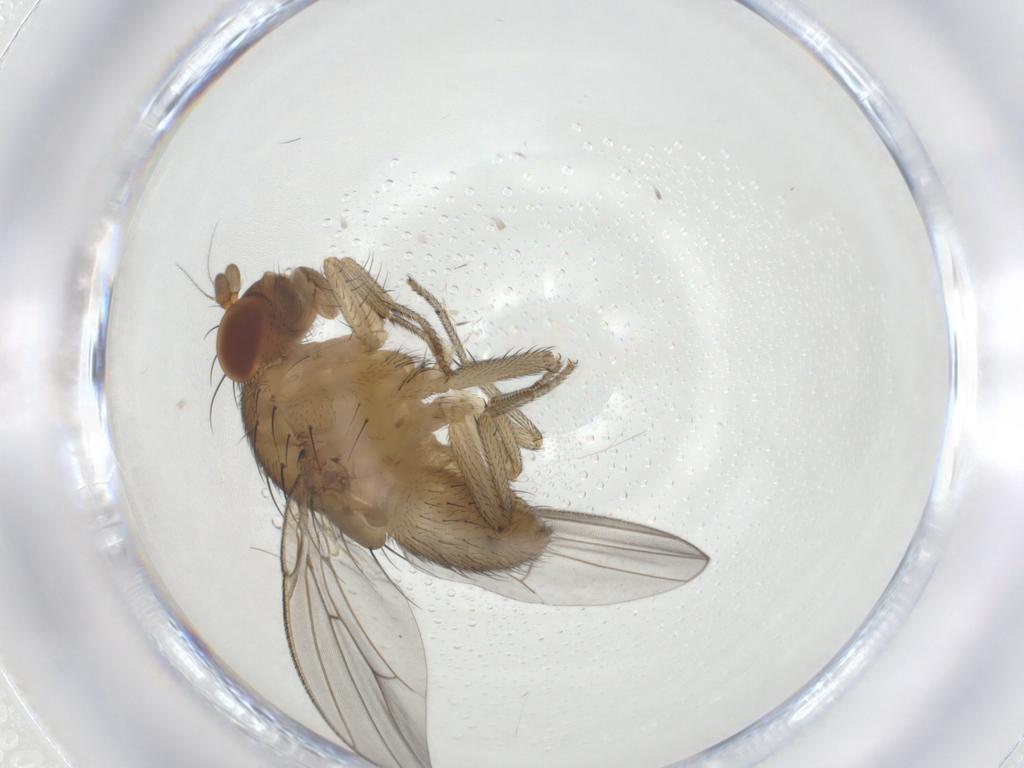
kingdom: Animalia
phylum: Arthropoda
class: Insecta
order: Diptera
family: Lauxaniidae
